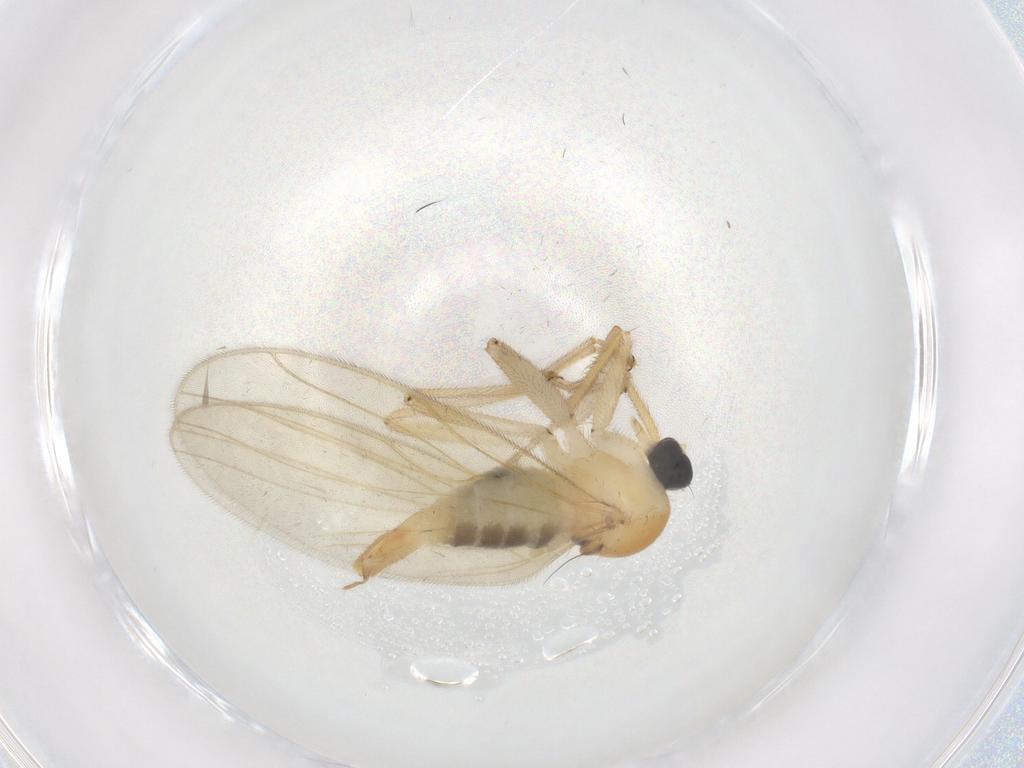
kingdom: Animalia
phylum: Arthropoda
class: Insecta
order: Diptera
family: Hybotidae
